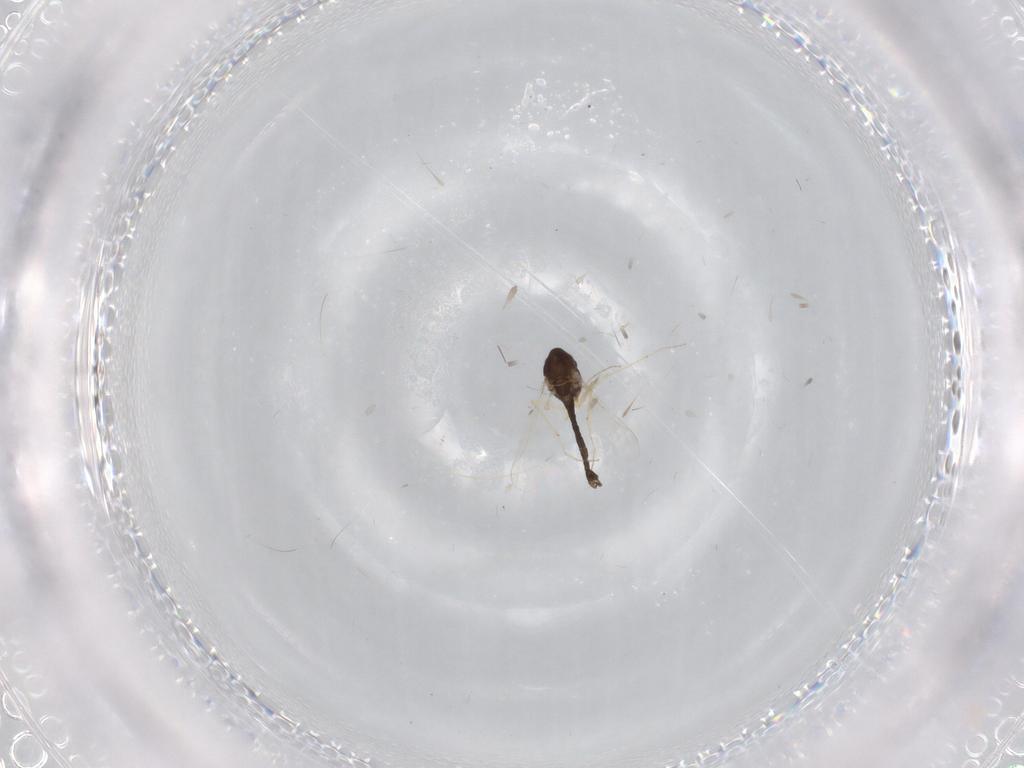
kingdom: Animalia
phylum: Arthropoda
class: Insecta
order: Diptera
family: Chironomidae
